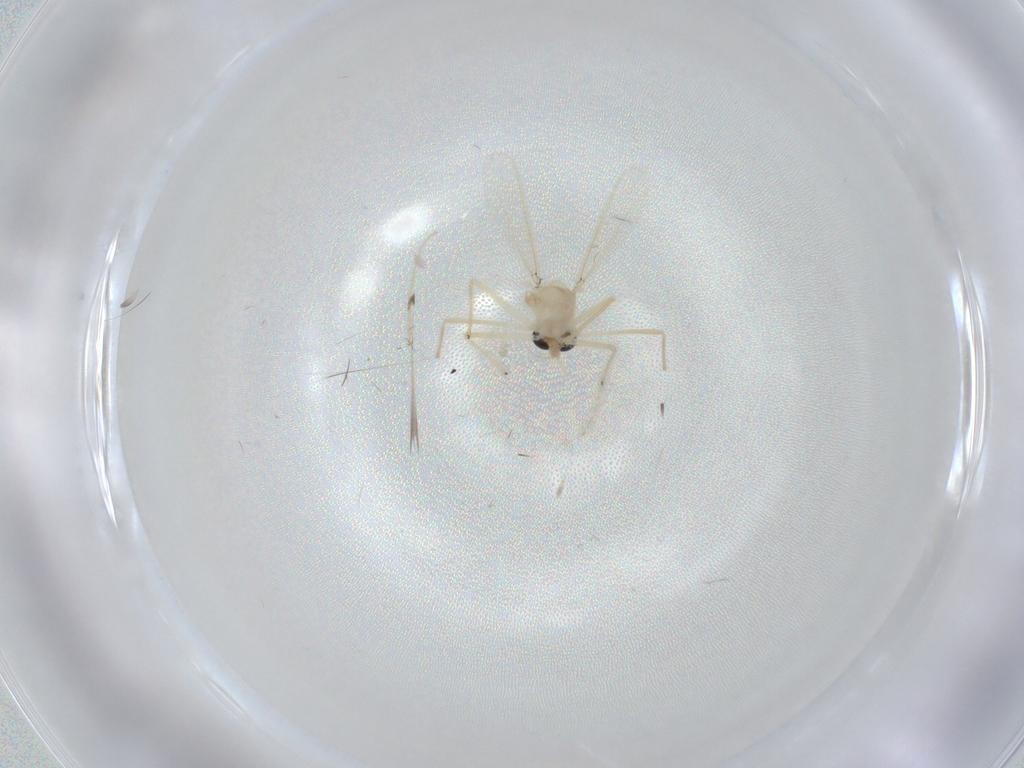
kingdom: Animalia
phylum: Arthropoda
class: Insecta
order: Diptera
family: Chironomidae
